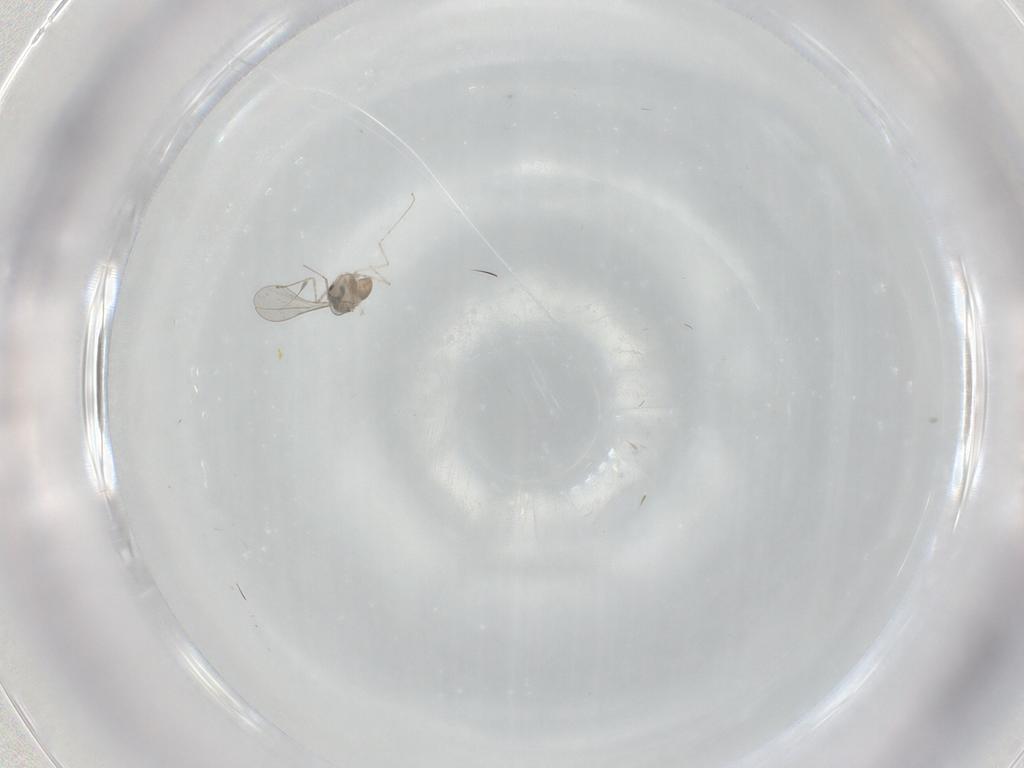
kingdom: Animalia
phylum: Arthropoda
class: Insecta
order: Diptera
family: Cecidomyiidae
